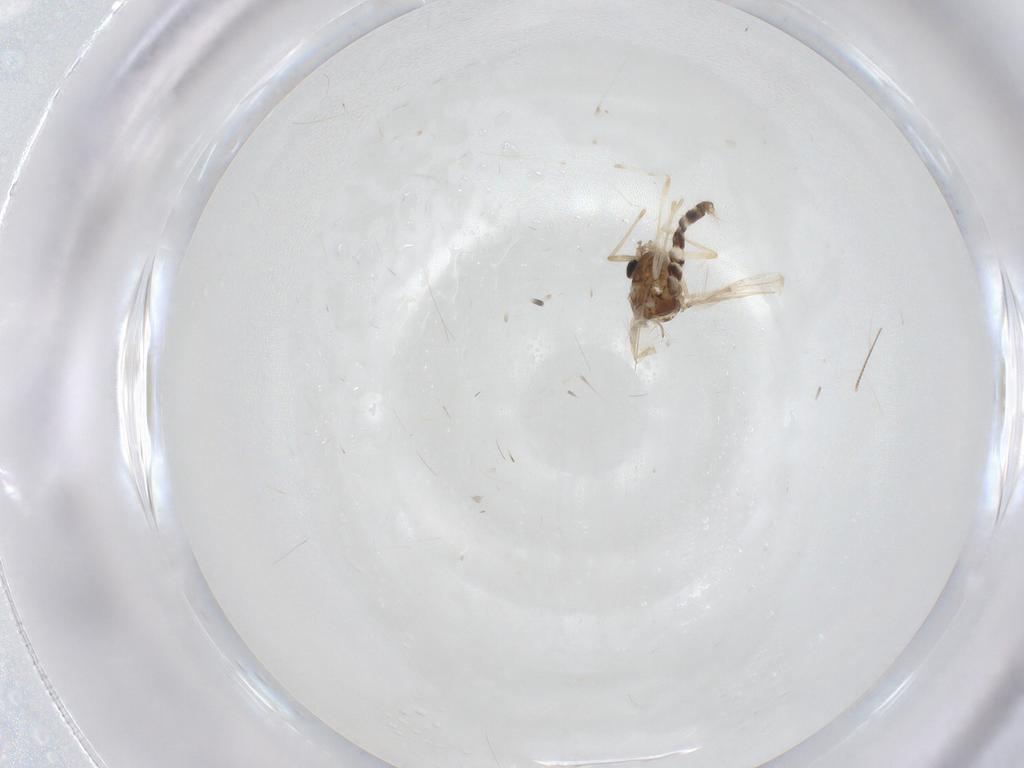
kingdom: Animalia
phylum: Arthropoda
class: Insecta
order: Diptera
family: Chironomidae
